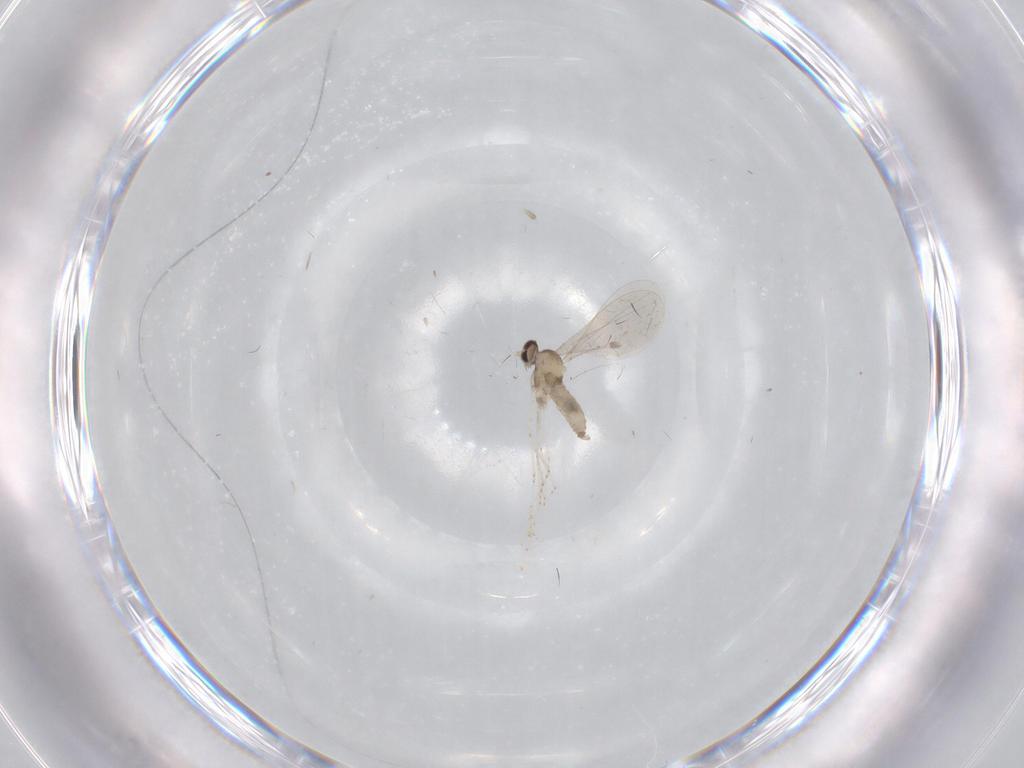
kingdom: Animalia
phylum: Arthropoda
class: Insecta
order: Diptera
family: Cecidomyiidae
